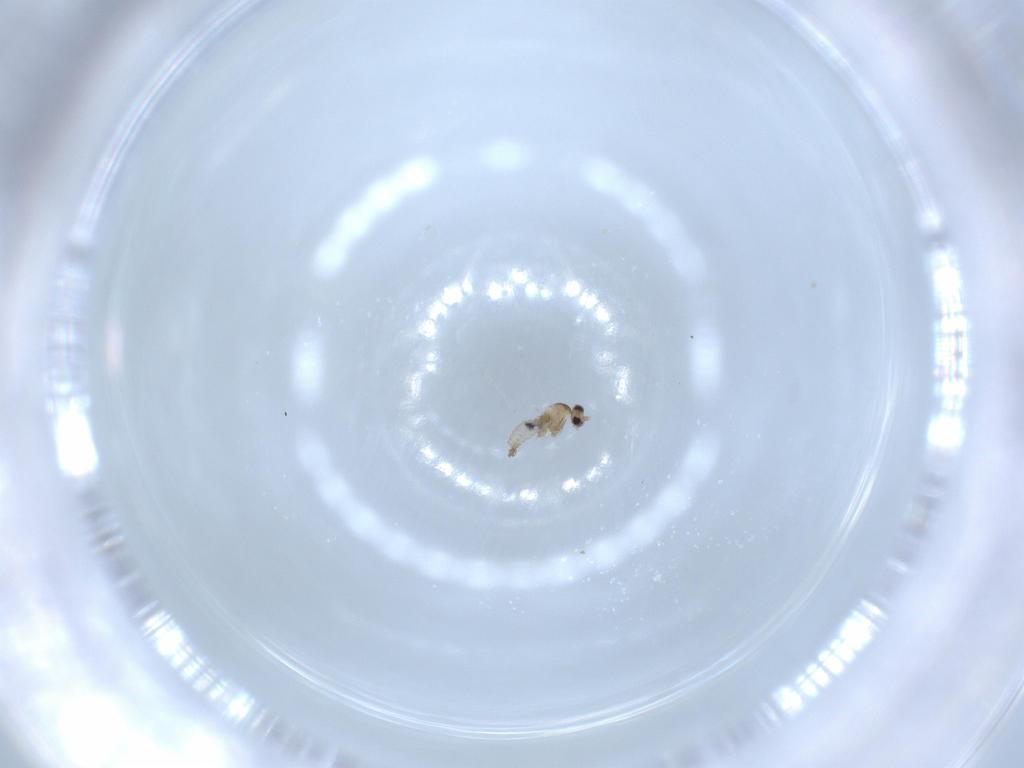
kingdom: Animalia
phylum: Arthropoda
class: Insecta
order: Diptera
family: Cecidomyiidae
